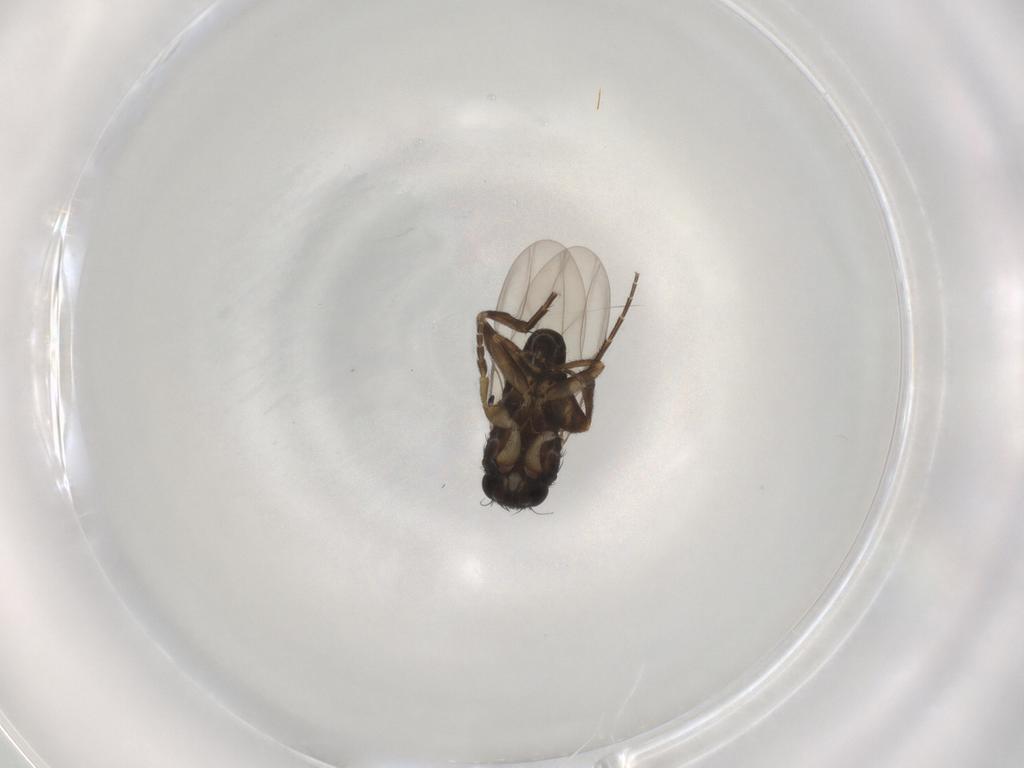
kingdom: Animalia
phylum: Arthropoda
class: Insecta
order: Diptera
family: Phoridae
